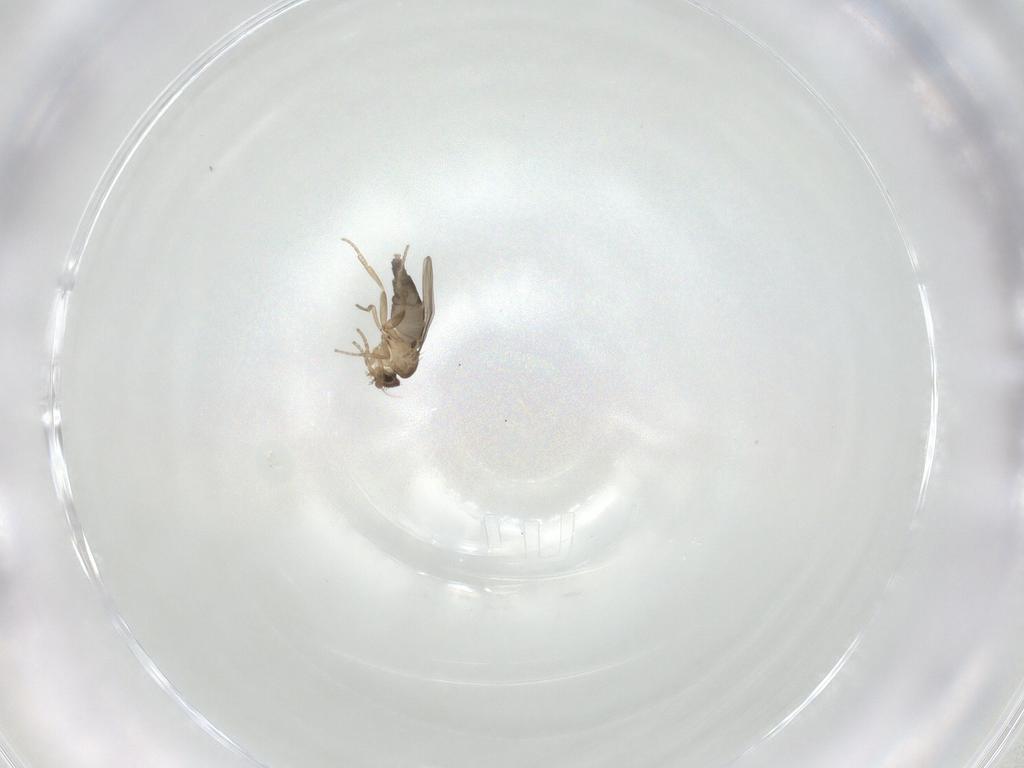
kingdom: Animalia
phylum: Arthropoda
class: Insecta
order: Diptera
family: Phoridae
